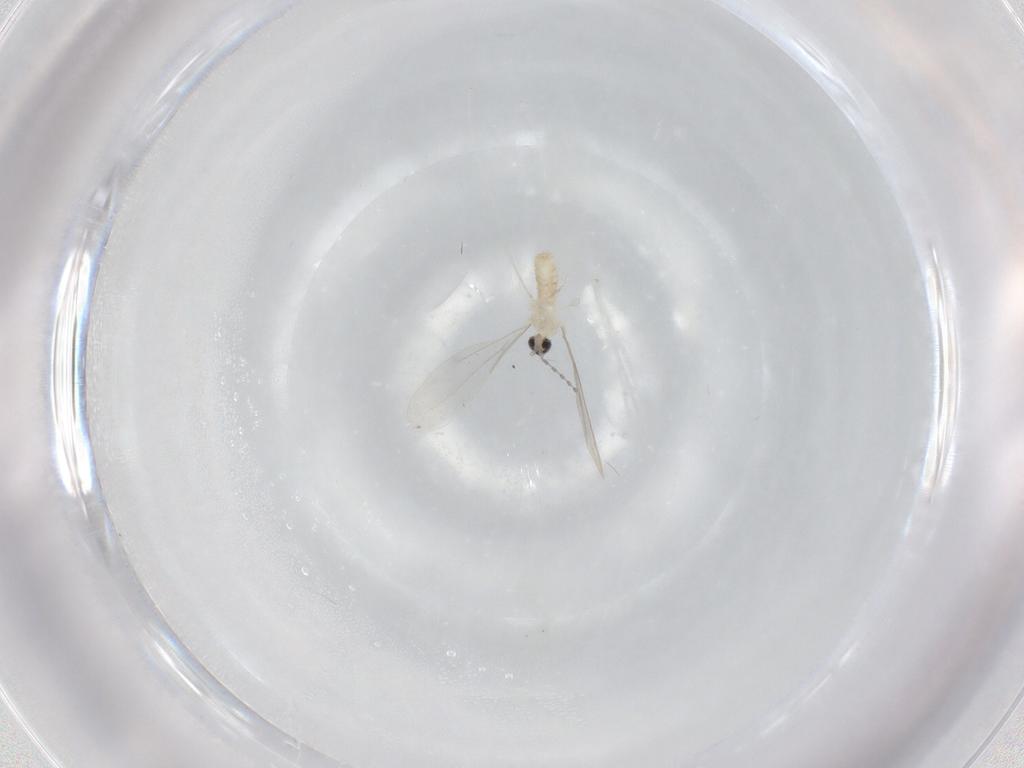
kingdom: Animalia
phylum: Arthropoda
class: Insecta
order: Diptera
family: Cecidomyiidae
